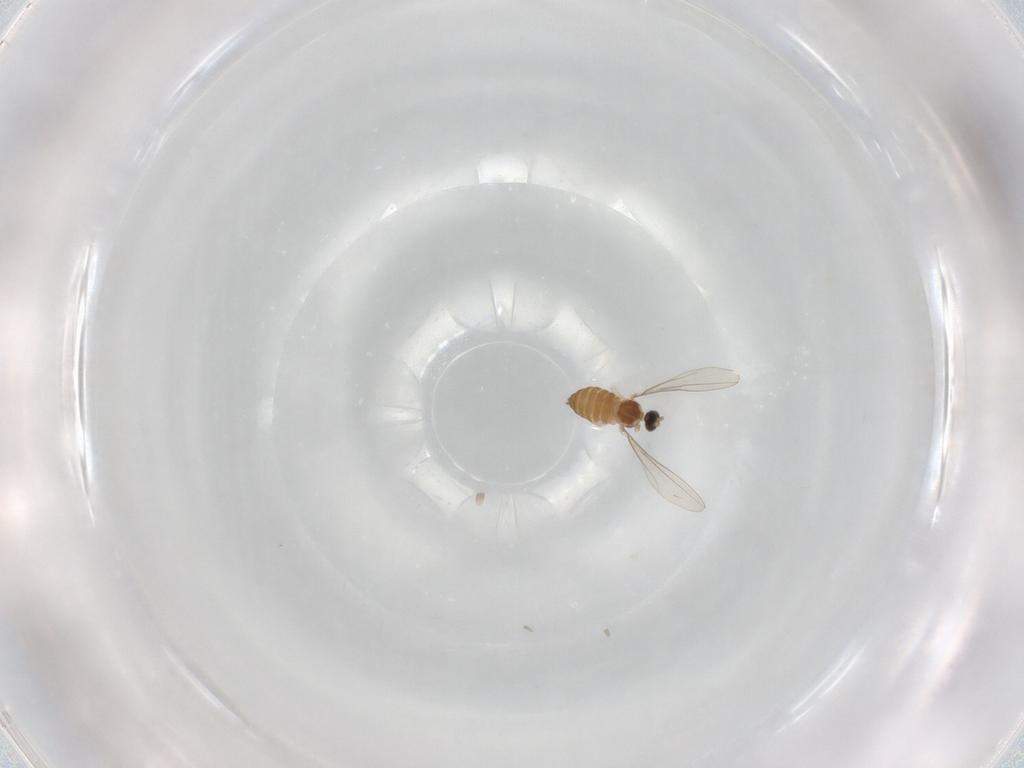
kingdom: Animalia
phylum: Arthropoda
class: Insecta
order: Diptera
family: Cecidomyiidae
